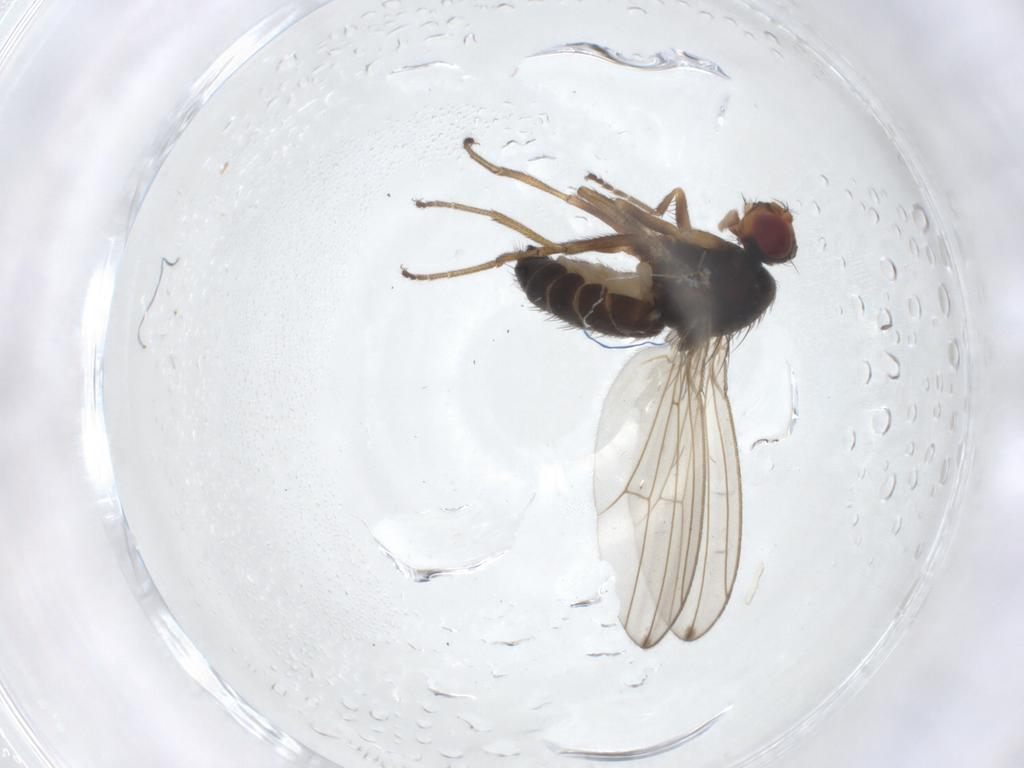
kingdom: Animalia
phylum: Arthropoda
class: Insecta
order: Diptera
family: Drosophilidae
